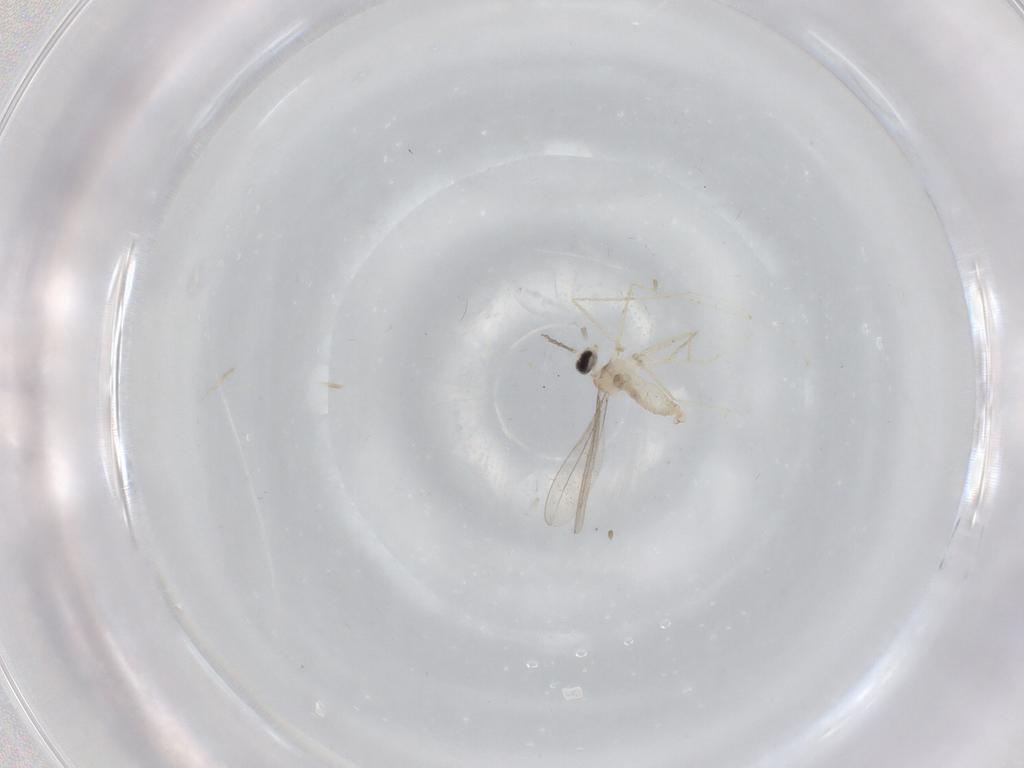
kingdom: Animalia
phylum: Arthropoda
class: Insecta
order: Diptera
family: Cecidomyiidae
